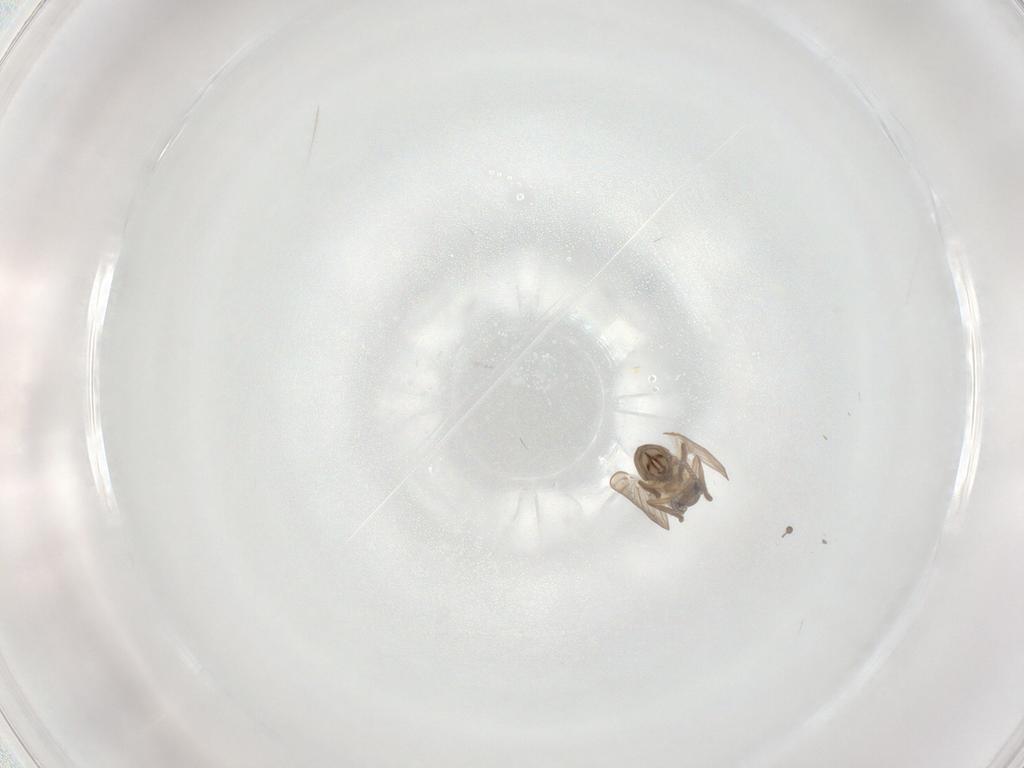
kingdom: Animalia
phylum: Arthropoda
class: Insecta
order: Diptera
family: Psychodidae
